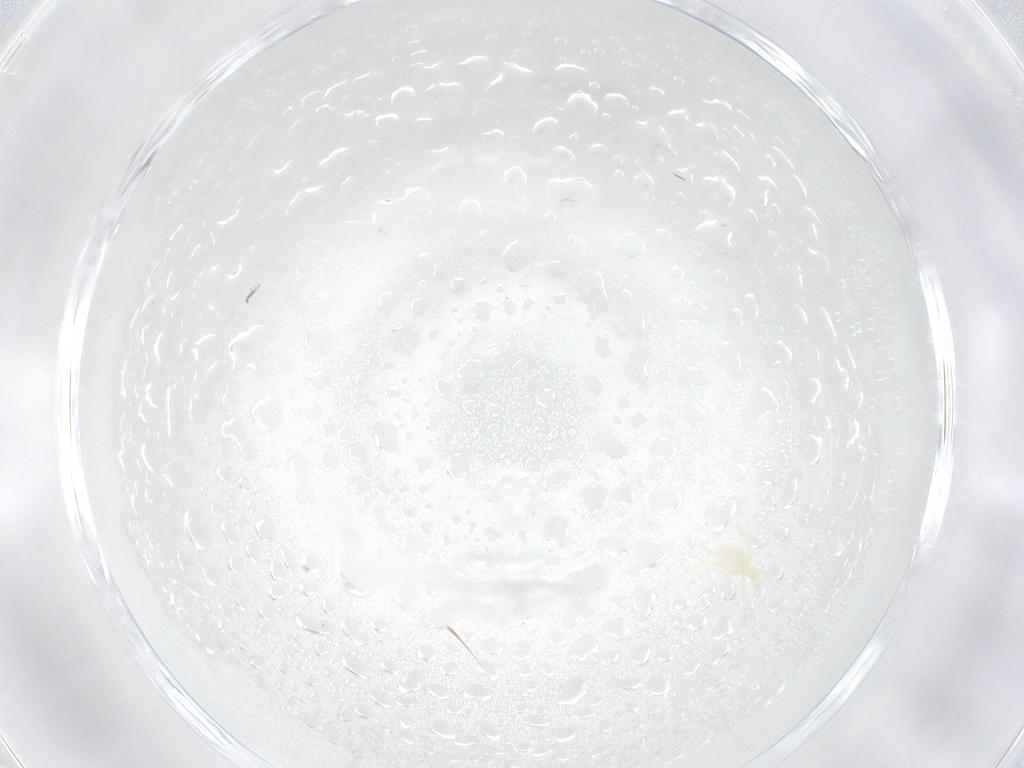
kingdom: Animalia
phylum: Arthropoda
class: Arachnida
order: Trombidiformes
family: Erythraeidae
